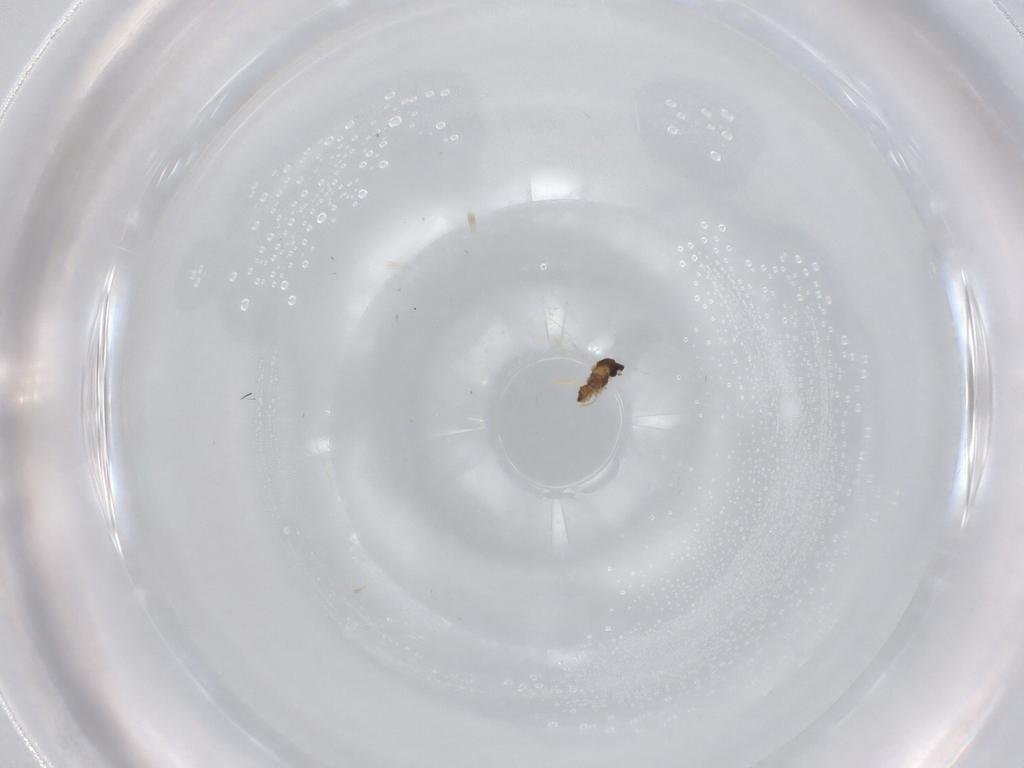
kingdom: Animalia
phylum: Arthropoda
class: Insecta
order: Diptera
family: Cecidomyiidae
